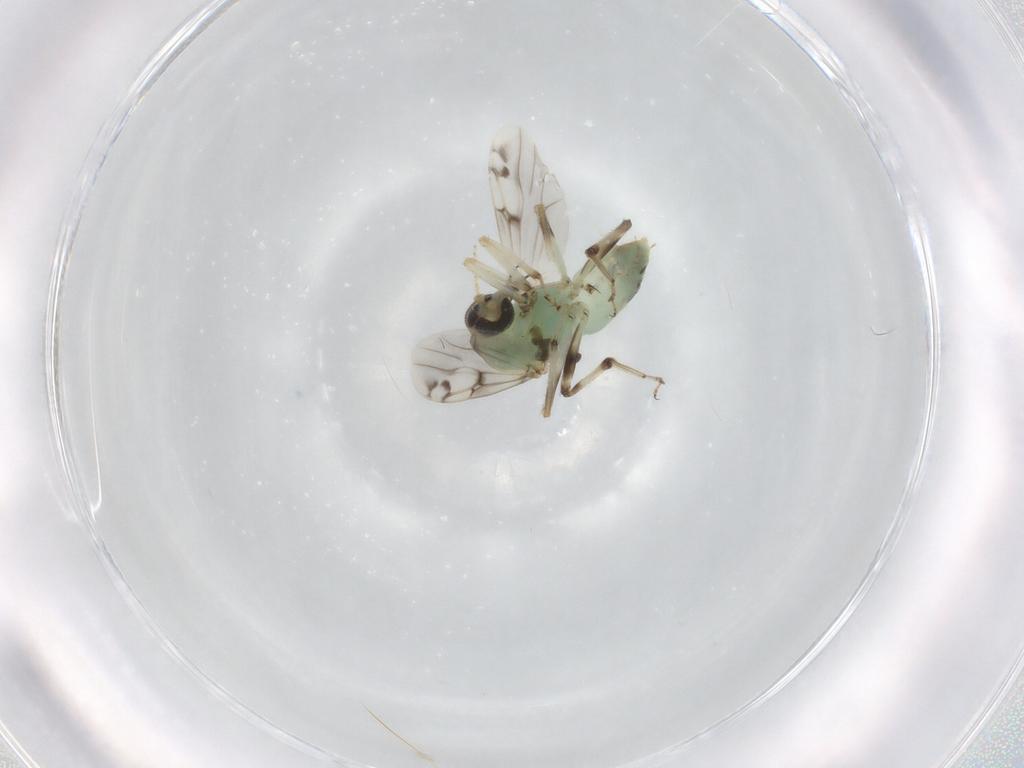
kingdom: Animalia
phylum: Arthropoda
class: Insecta
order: Diptera
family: Ceratopogonidae
